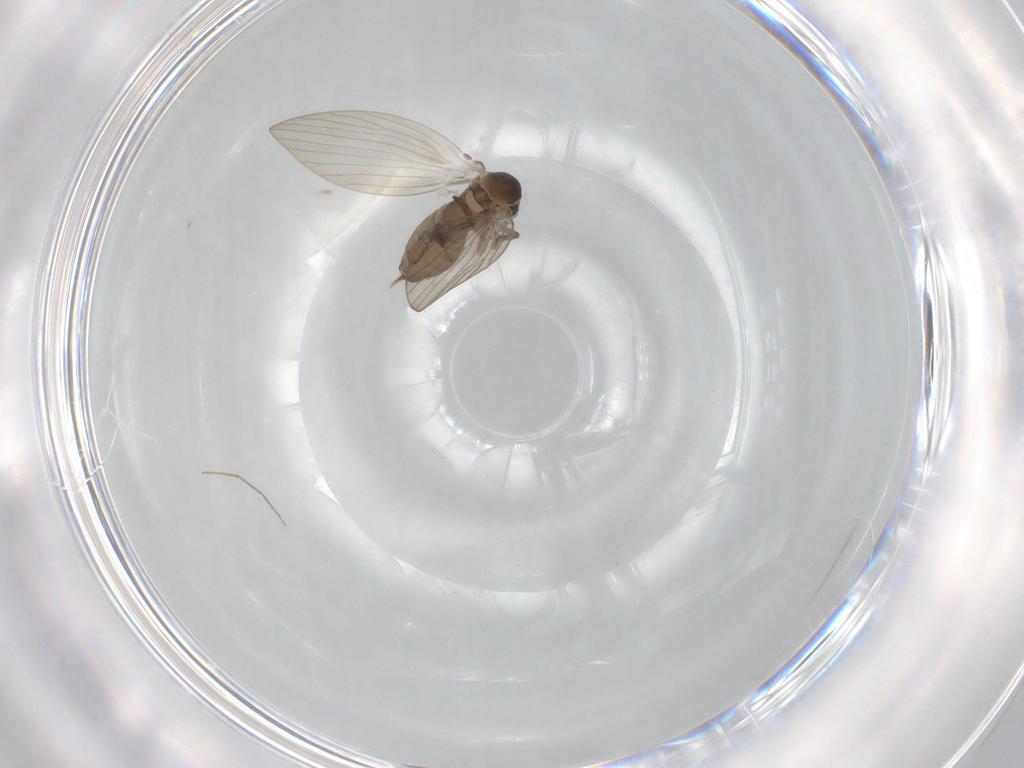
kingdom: Animalia
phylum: Arthropoda
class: Insecta
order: Diptera
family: Psychodidae
